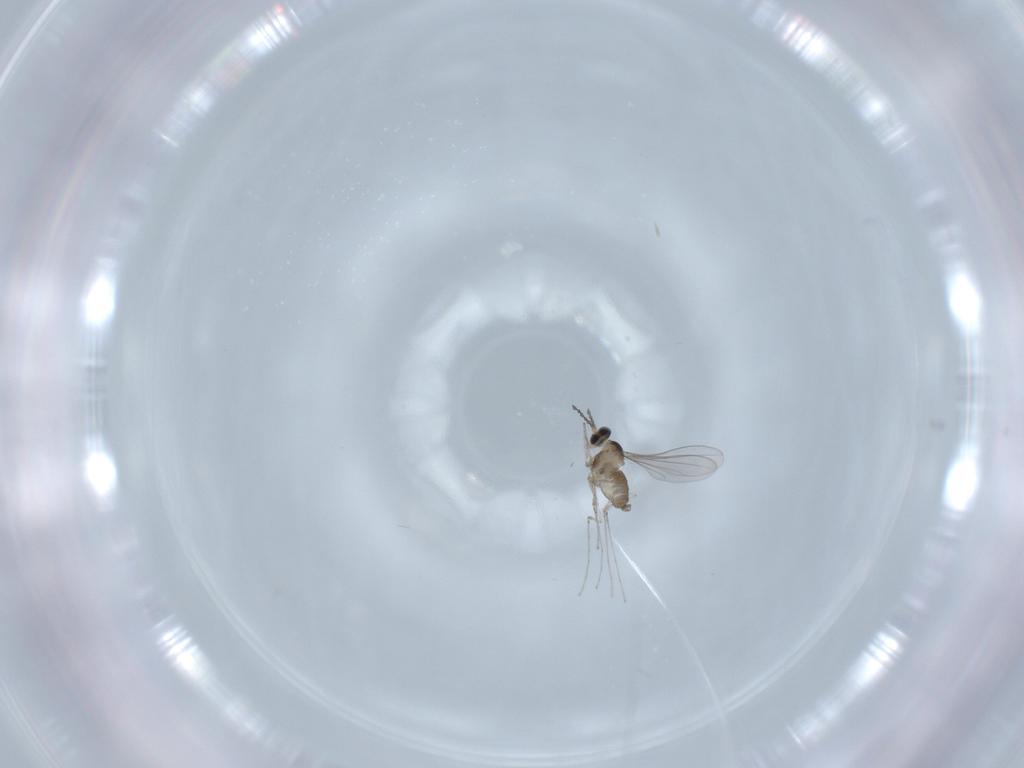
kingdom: Animalia
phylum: Arthropoda
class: Insecta
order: Diptera
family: Cecidomyiidae
